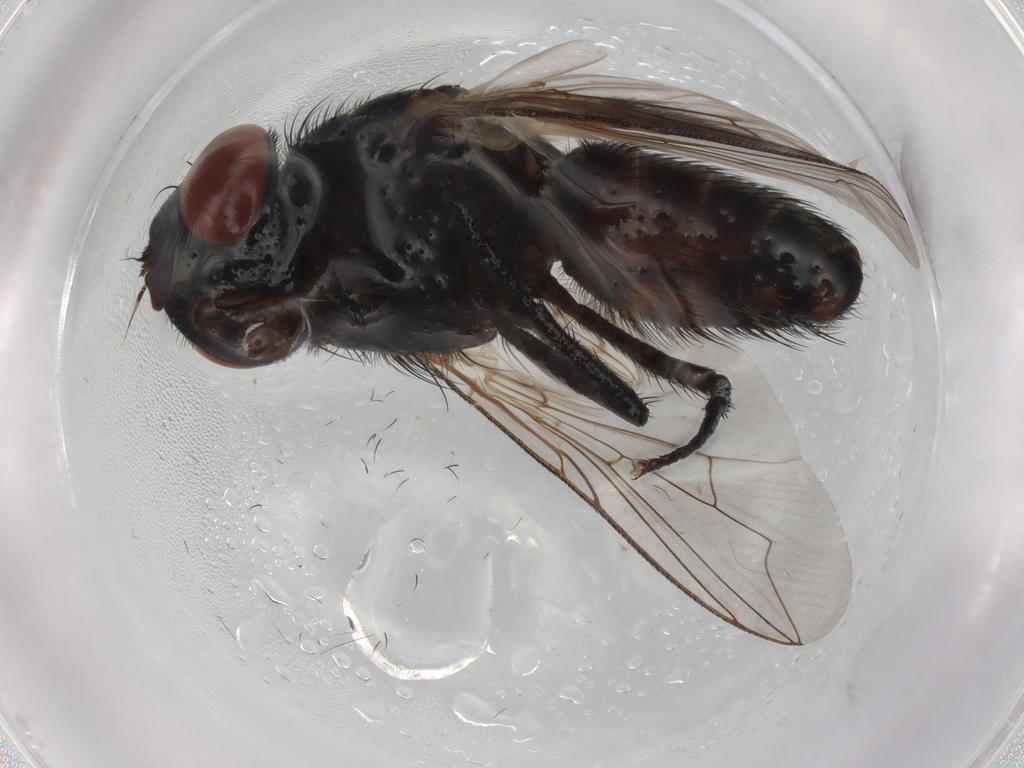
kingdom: Animalia
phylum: Arthropoda
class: Insecta
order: Diptera
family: Sarcophagidae
